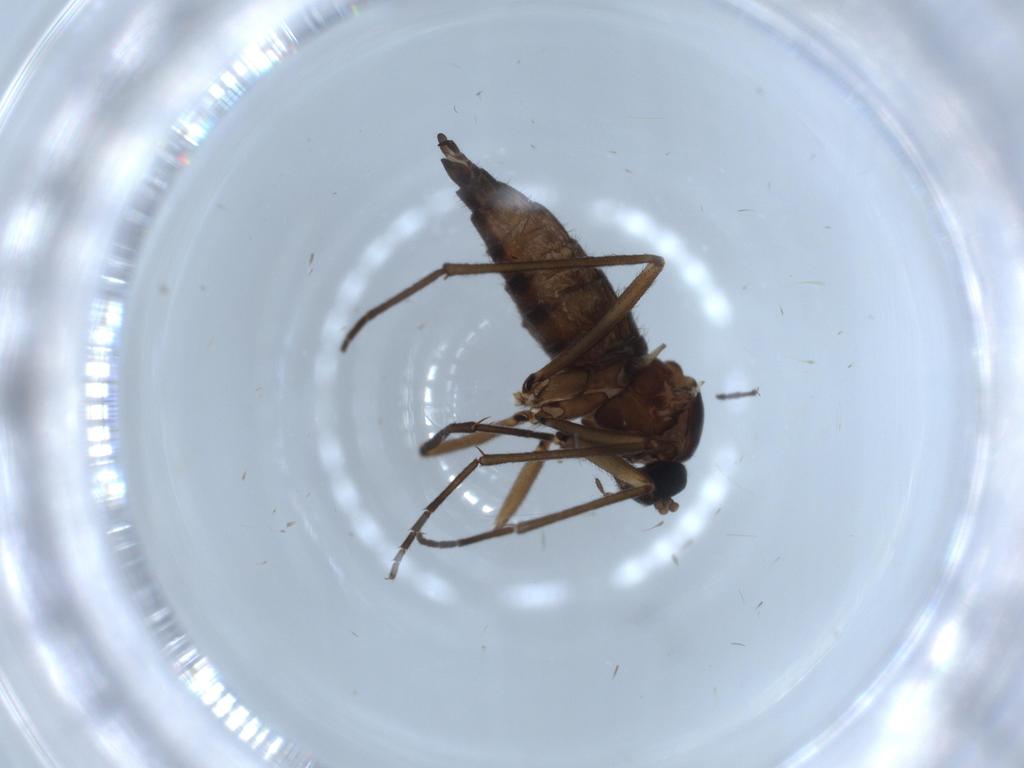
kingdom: Animalia
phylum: Arthropoda
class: Insecta
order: Diptera
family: Sciaridae
